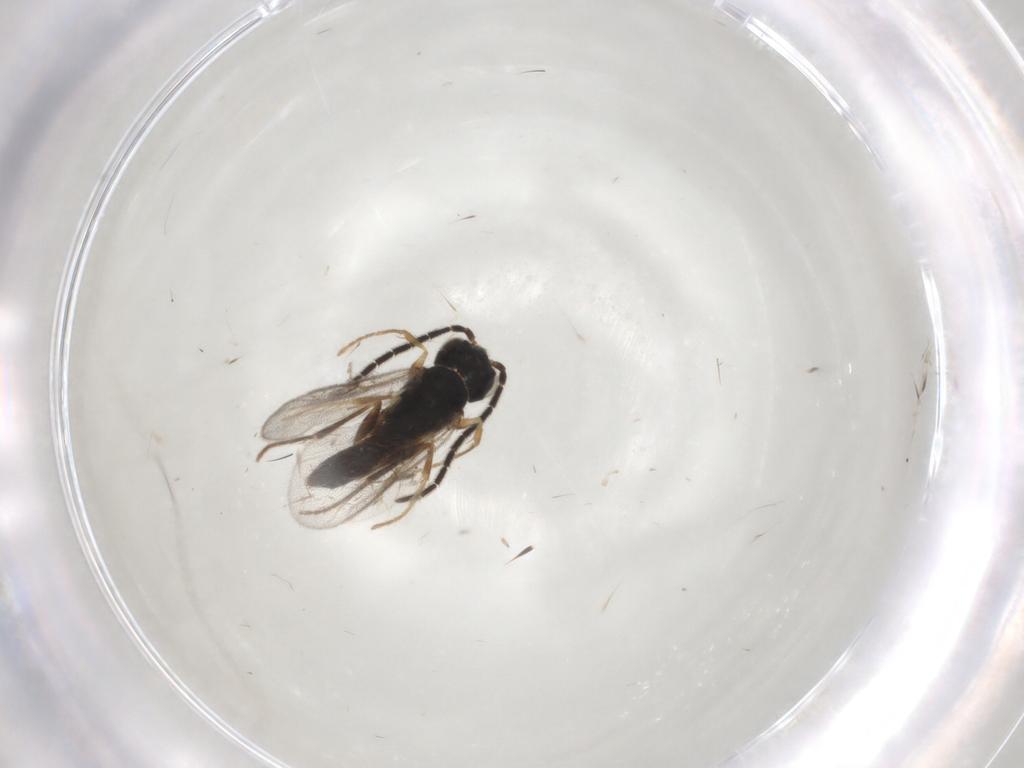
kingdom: Animalia
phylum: Arthropoda
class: Insecta
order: Hymenoptera
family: Dryinidae
